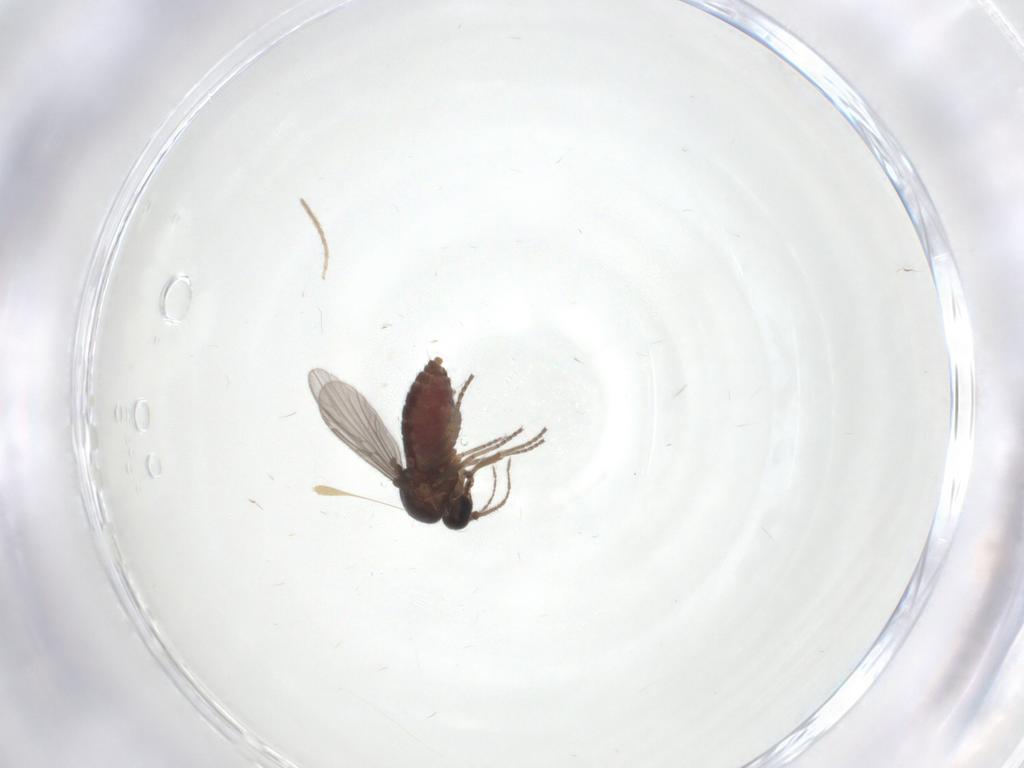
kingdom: Animalia
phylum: Arthropoda
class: Insecta
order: Diptera
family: Ceratopogonidae
